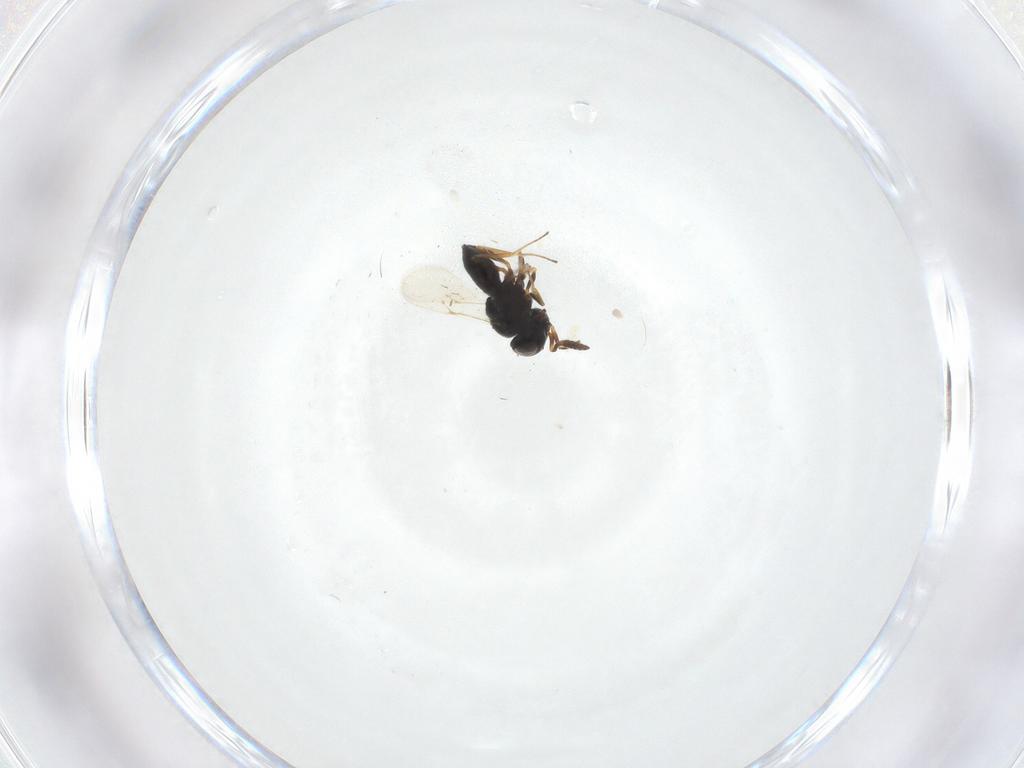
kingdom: Animalia
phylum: Arthropoda
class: Insecta
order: Hymenoptera
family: Scelionidae
